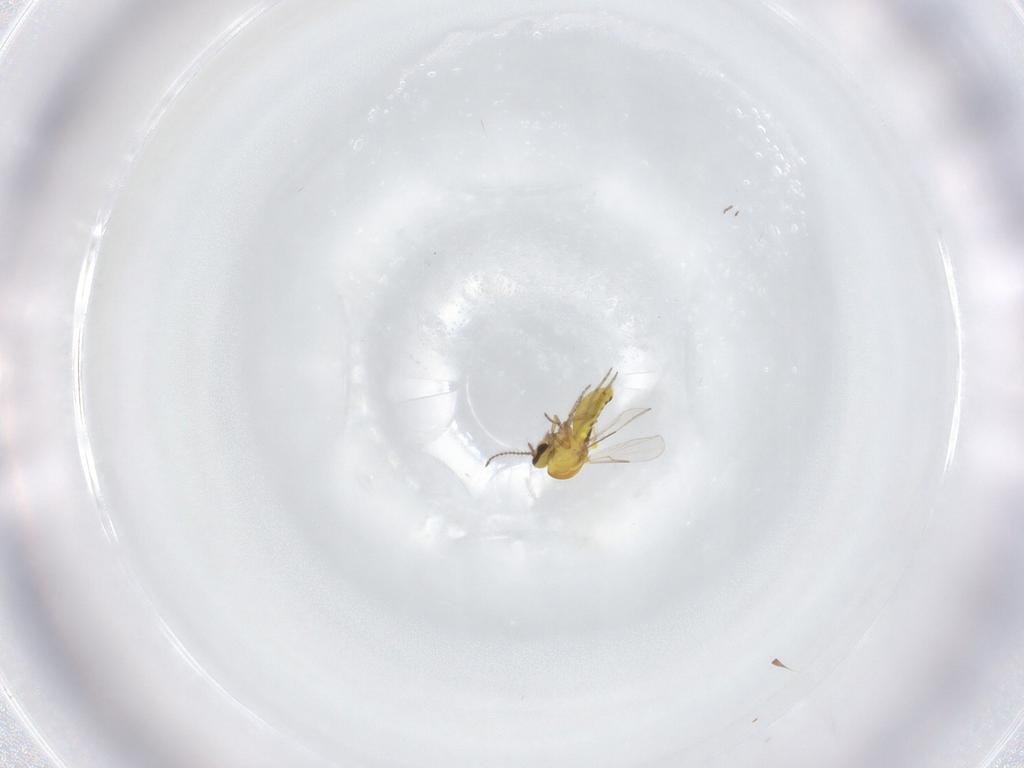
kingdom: Animalia
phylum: Arthropoda
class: Insecta
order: Diptera
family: Ceratopogonidae
